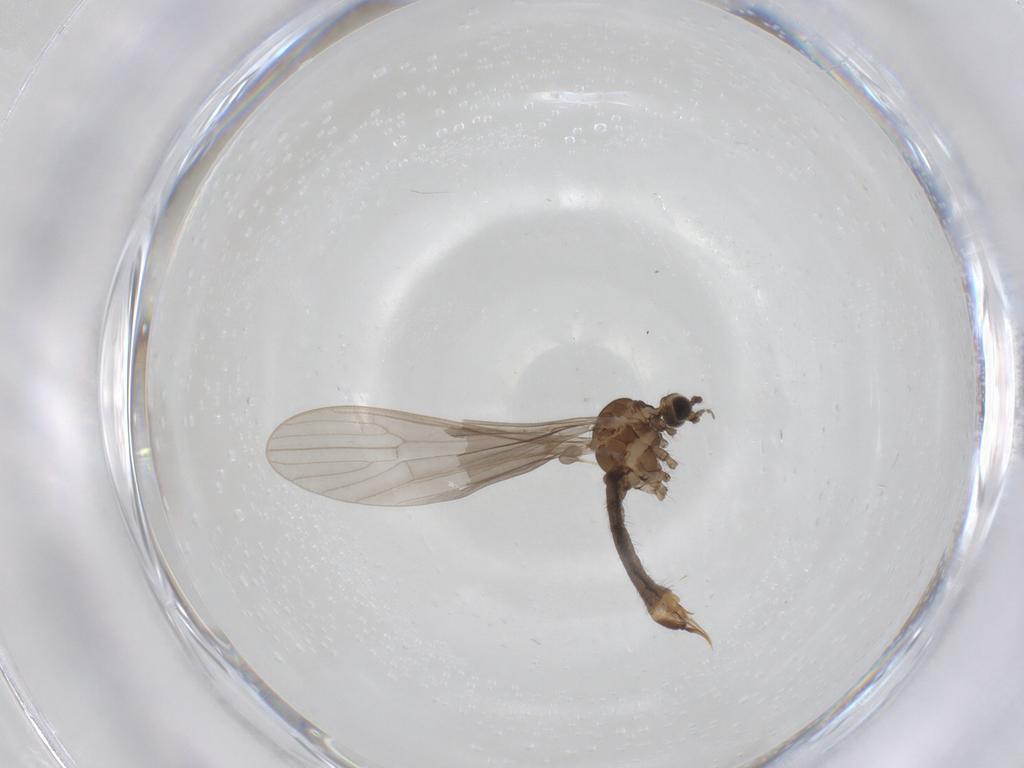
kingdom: Animalia
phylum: Arthropoda
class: Insecta
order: Diptera
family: Limoniidae
